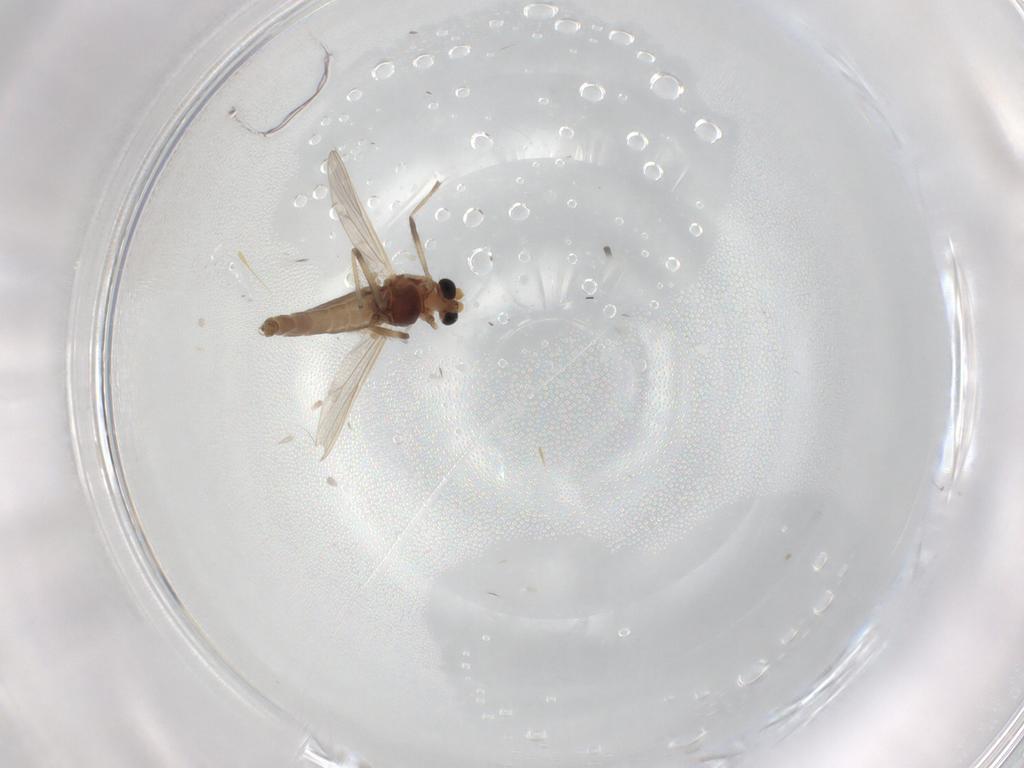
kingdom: Animalia
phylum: Arthropoda
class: Insecta
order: Diptera
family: Chironomidae
